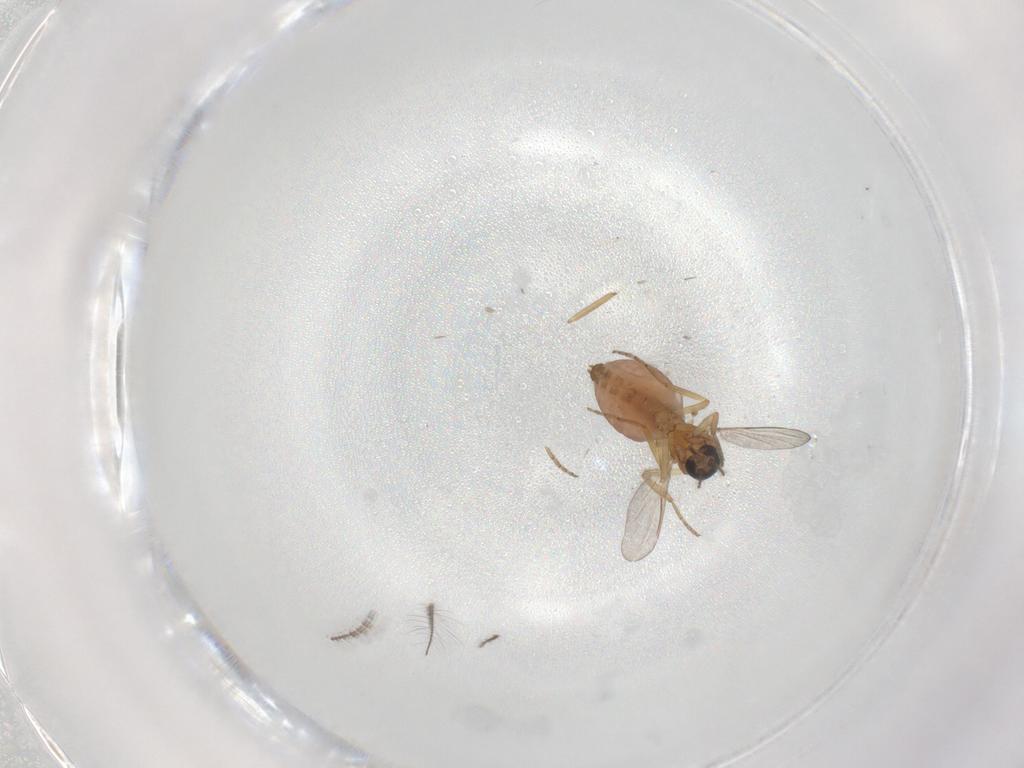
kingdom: Animalia
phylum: Arthropoda
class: Insecta
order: Diptera
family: Ceratopogonidae
